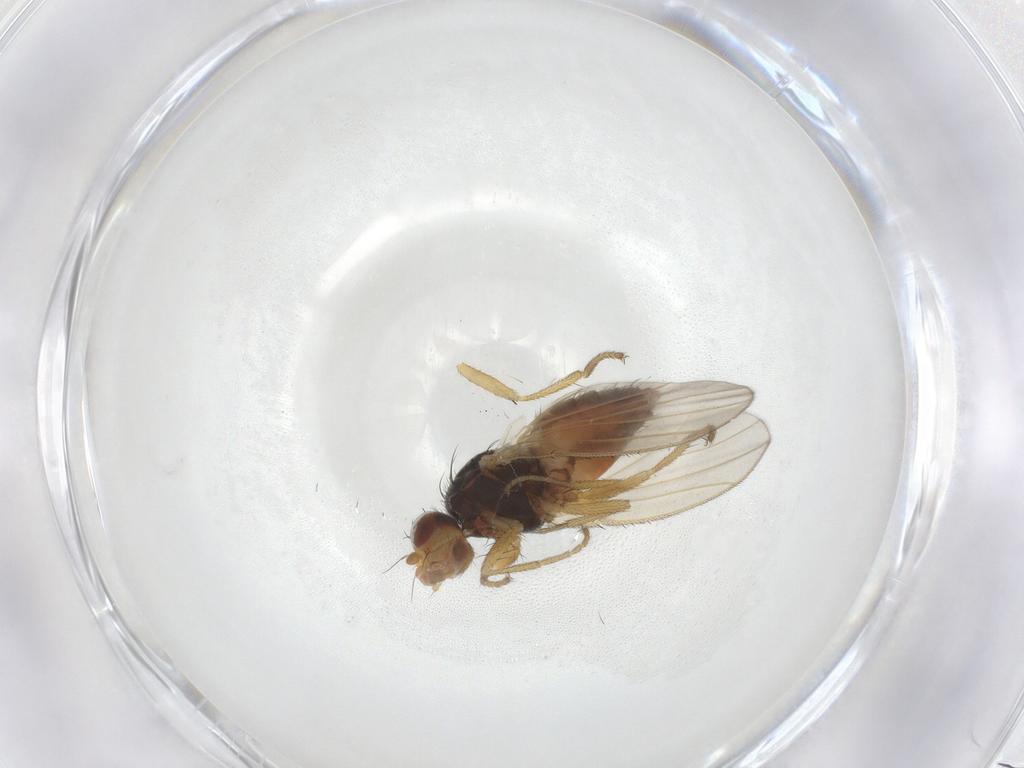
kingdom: Animalia
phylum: Arthropoda
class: Insecta
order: Diptera
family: Heleomyzidae
